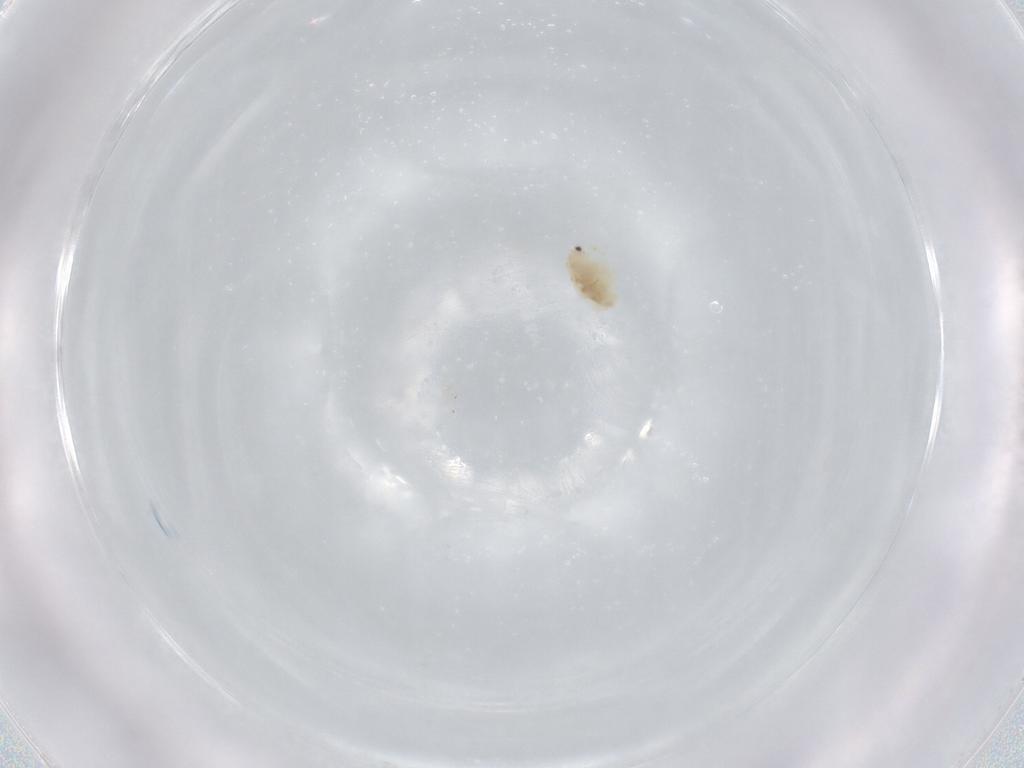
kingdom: Animalia
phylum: Arthropoda
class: Branchiopoda
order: Diplostraca
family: Daphniidae
